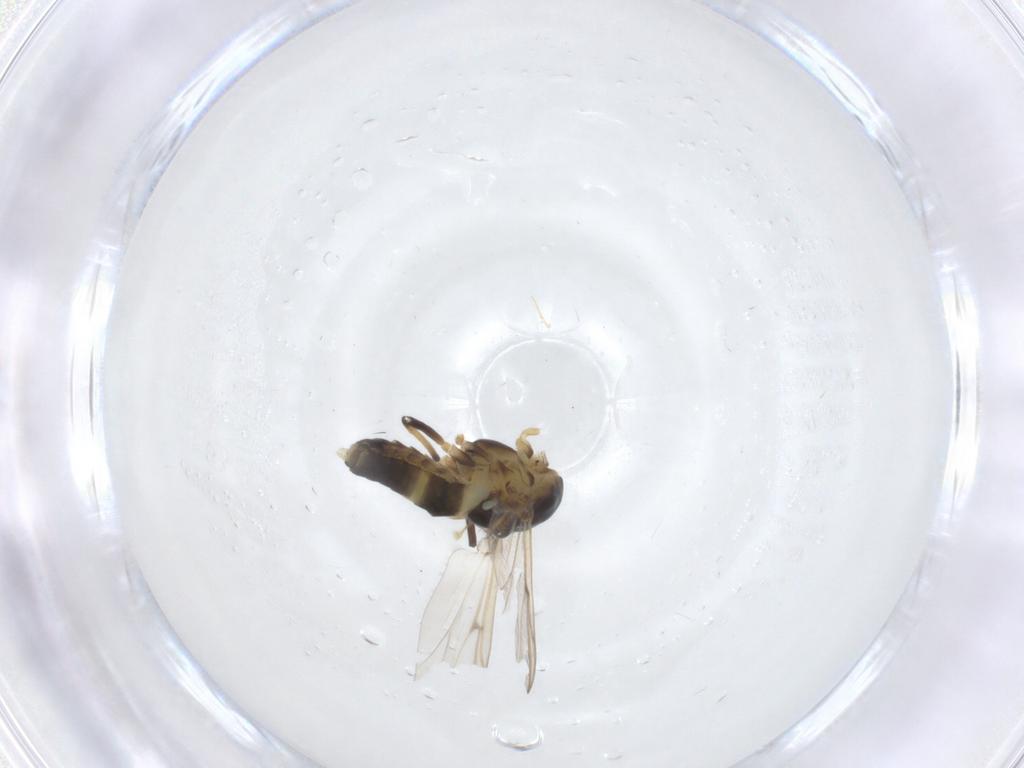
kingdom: Animalia
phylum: Arthropoda
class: Insecta
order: Diptera
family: Chironomidae
